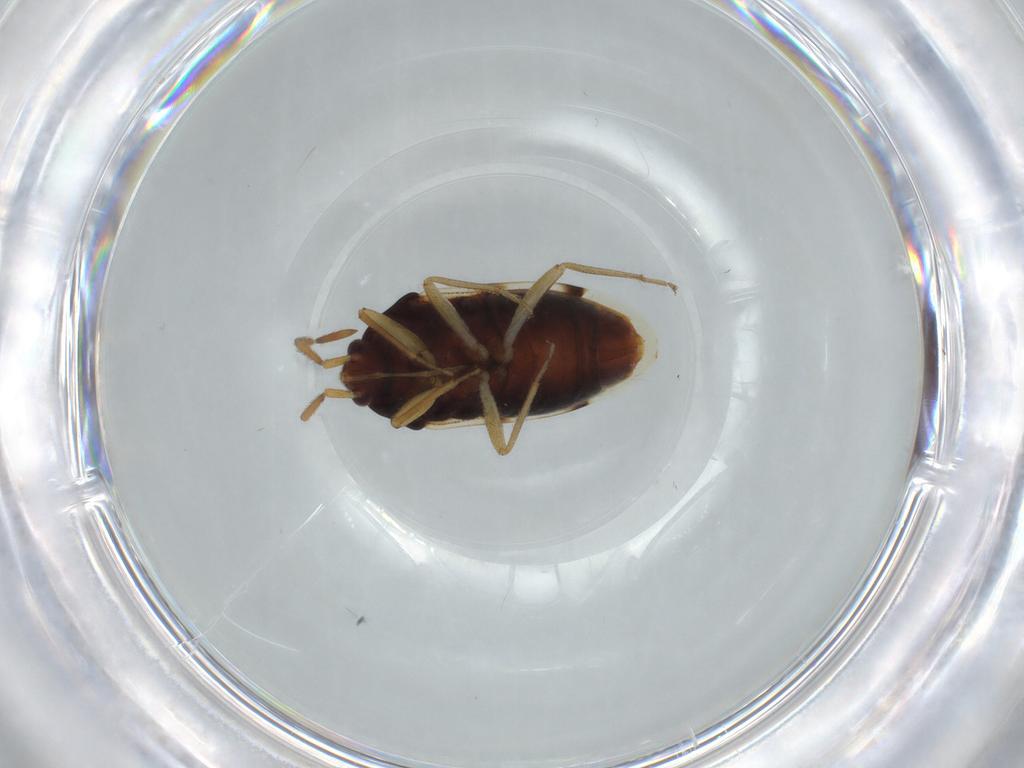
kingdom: Animalia
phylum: Arthropoda
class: Insecta
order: Hemiptera
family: Rhyparochromidae
